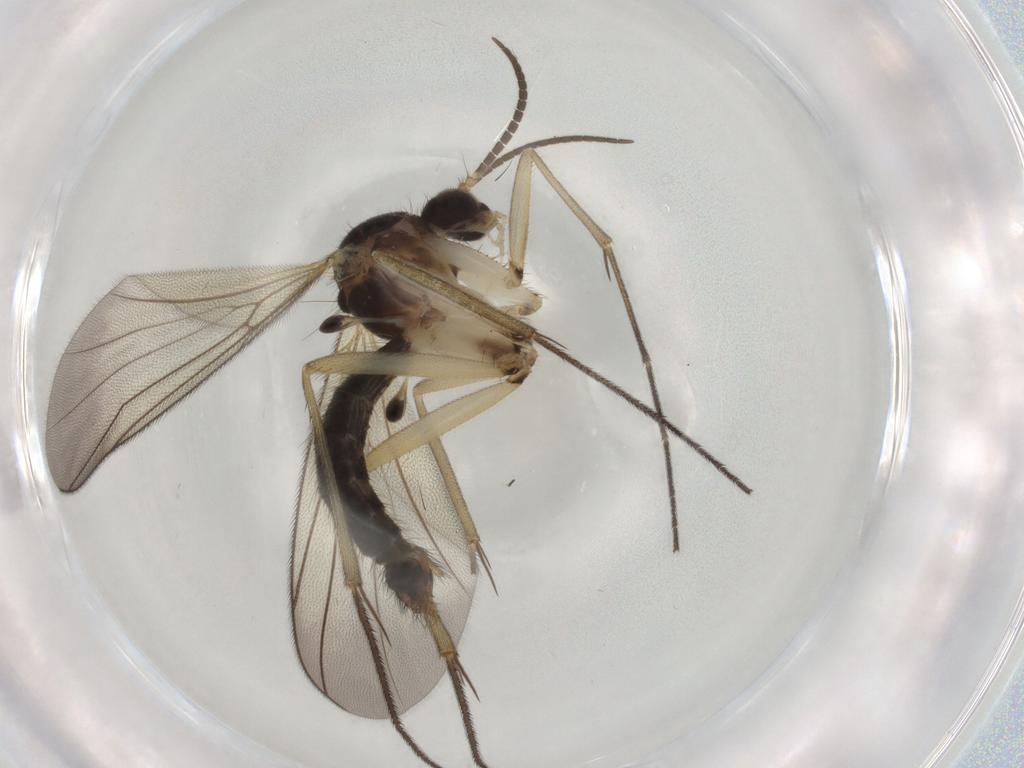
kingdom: Animalia
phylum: Arthropoda
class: Insecta
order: Diptera
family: Mycetophilidae
